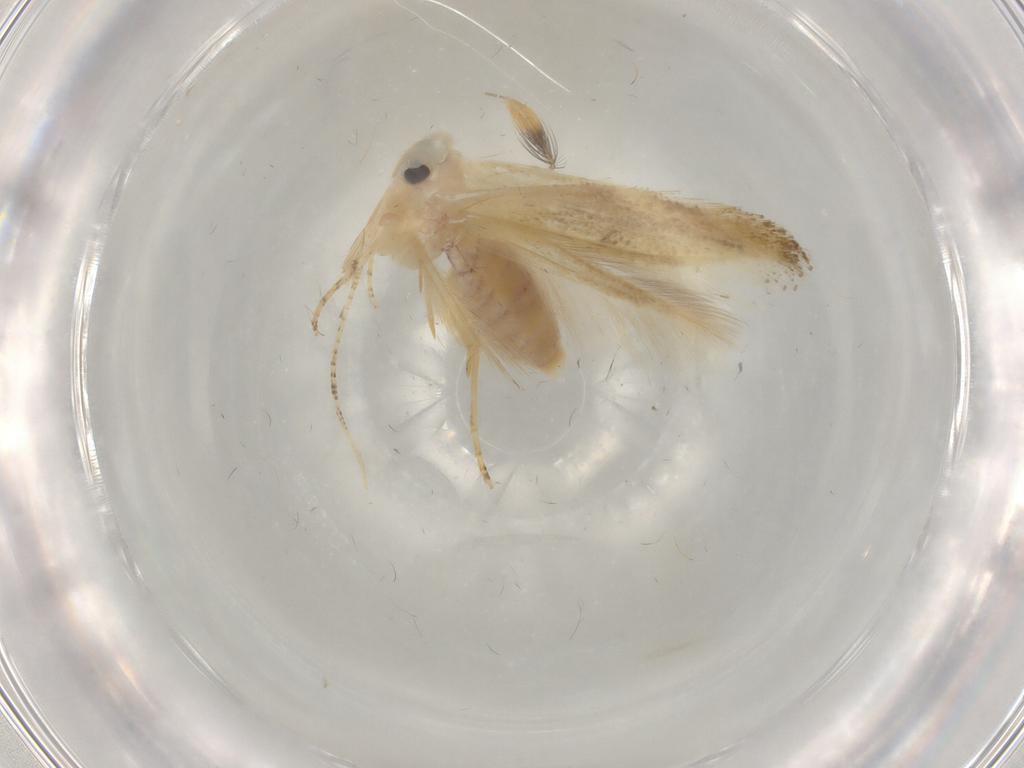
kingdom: Animalia
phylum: Arthropoda
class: Insecta
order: Lepidoptera
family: Bucculatricidae
